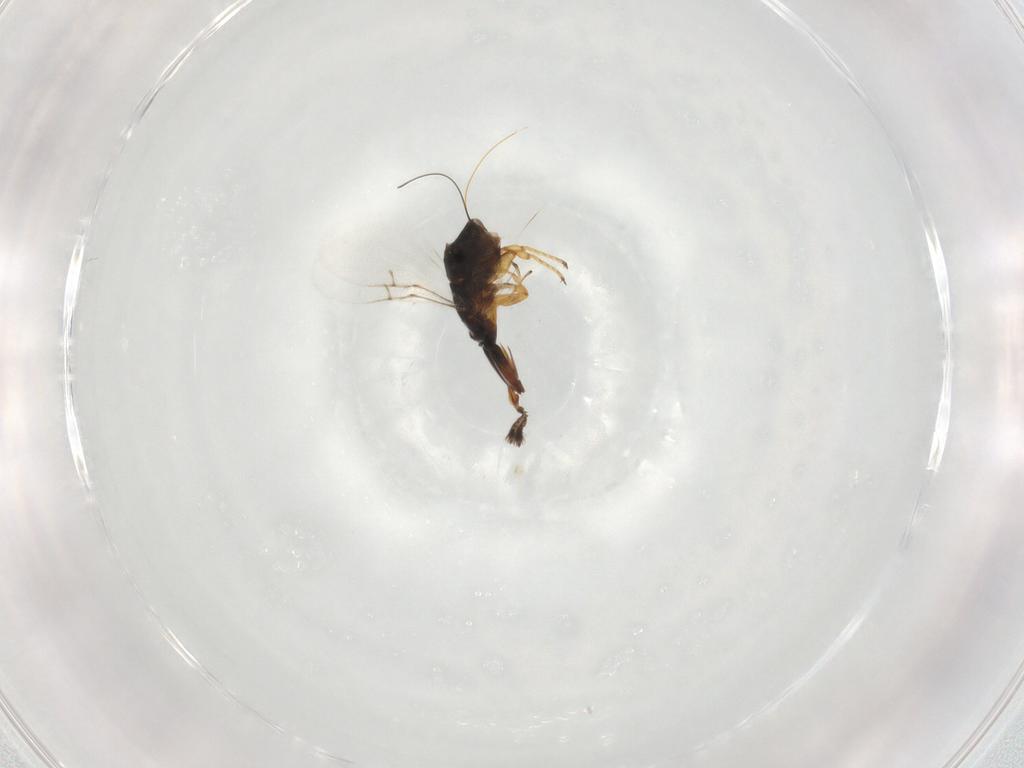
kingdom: Animalia
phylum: Arthropoda
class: Insecta
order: Hymenoptera
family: Agaonidae
